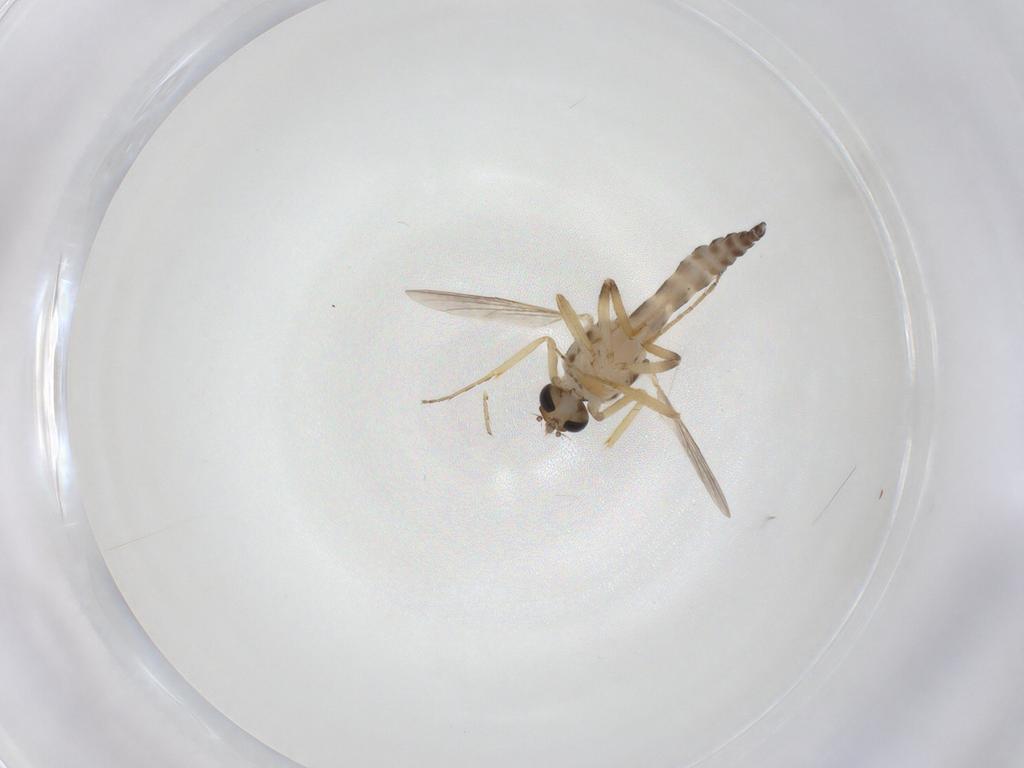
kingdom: Animalia
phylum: Arthropoda
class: Insecta
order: Diptera
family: Ceratopogonidae
